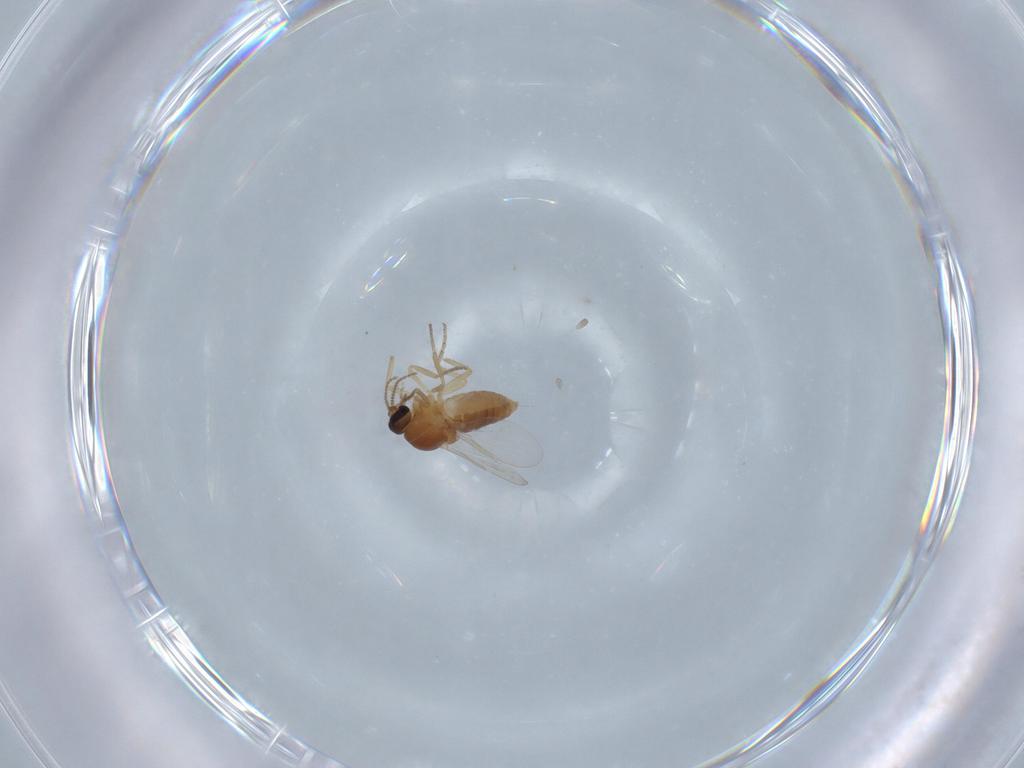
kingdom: Animalia
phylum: Arthropoda
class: Insecta
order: Diptera
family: Ceratopogonidae
